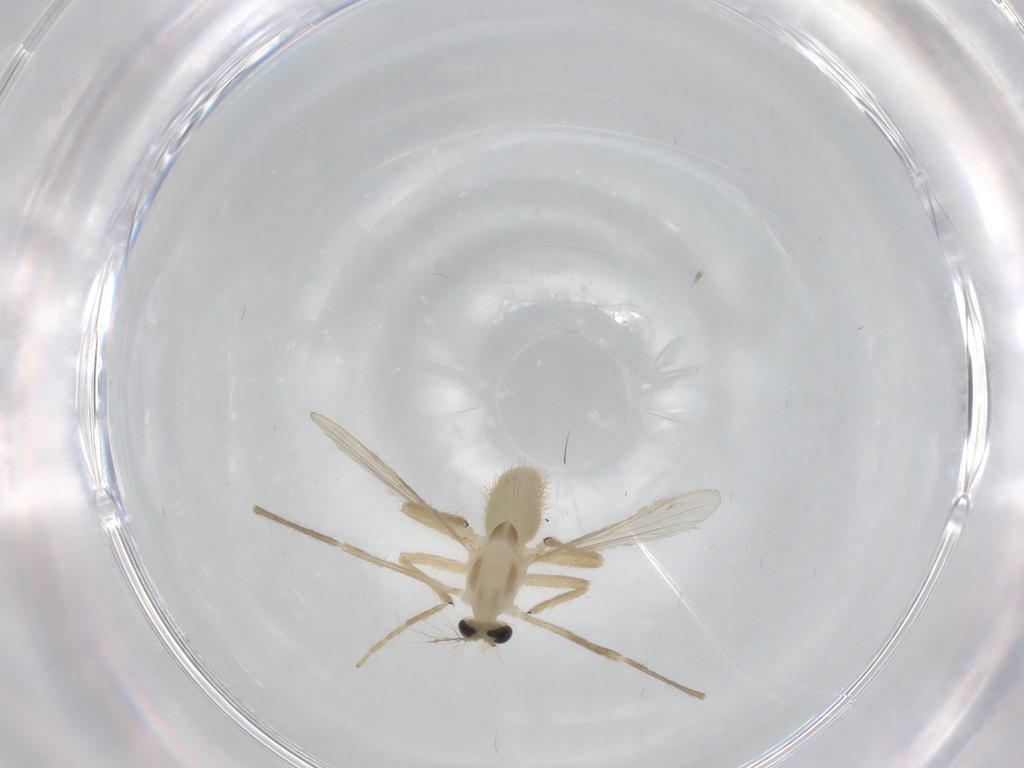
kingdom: Animalia
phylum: Arthropoda
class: Insecta
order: Diptera
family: Chironomidae
